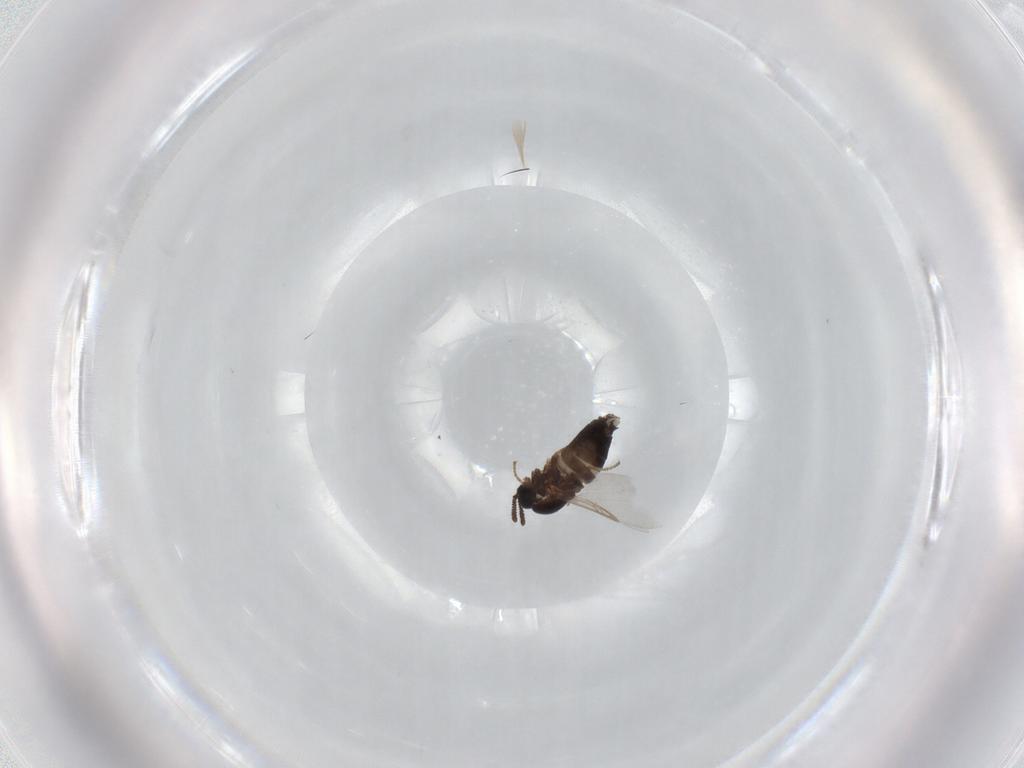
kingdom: Animalia
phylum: Arthropoda
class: Insecta
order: Diptera
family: Scatopsidae
